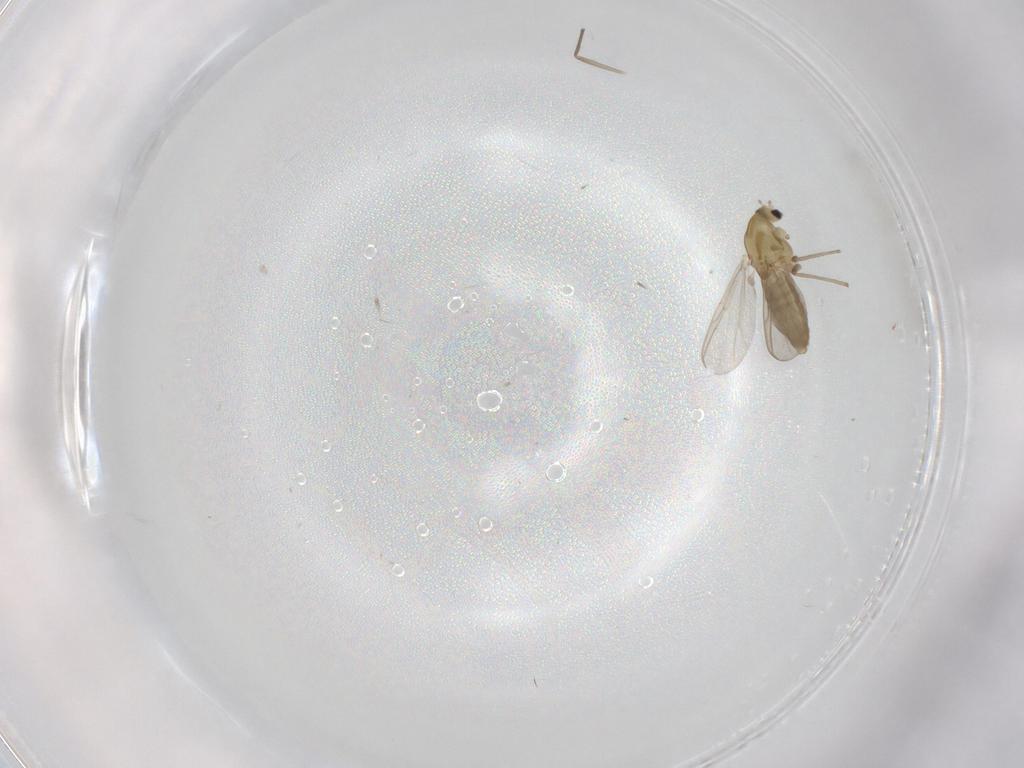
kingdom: Animalia
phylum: Arthropoda
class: Insecta
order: Diptera
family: Chironomidae
